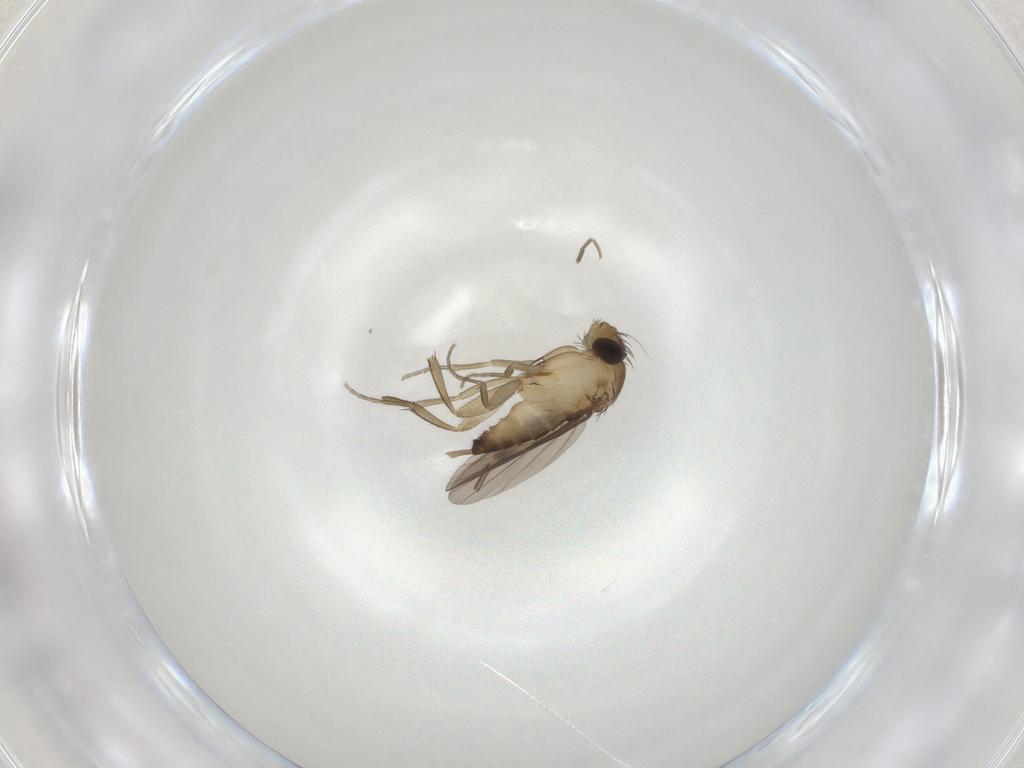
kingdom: Animalia
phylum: Arthropoda
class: Insecta
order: Diptera
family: Phoridae
